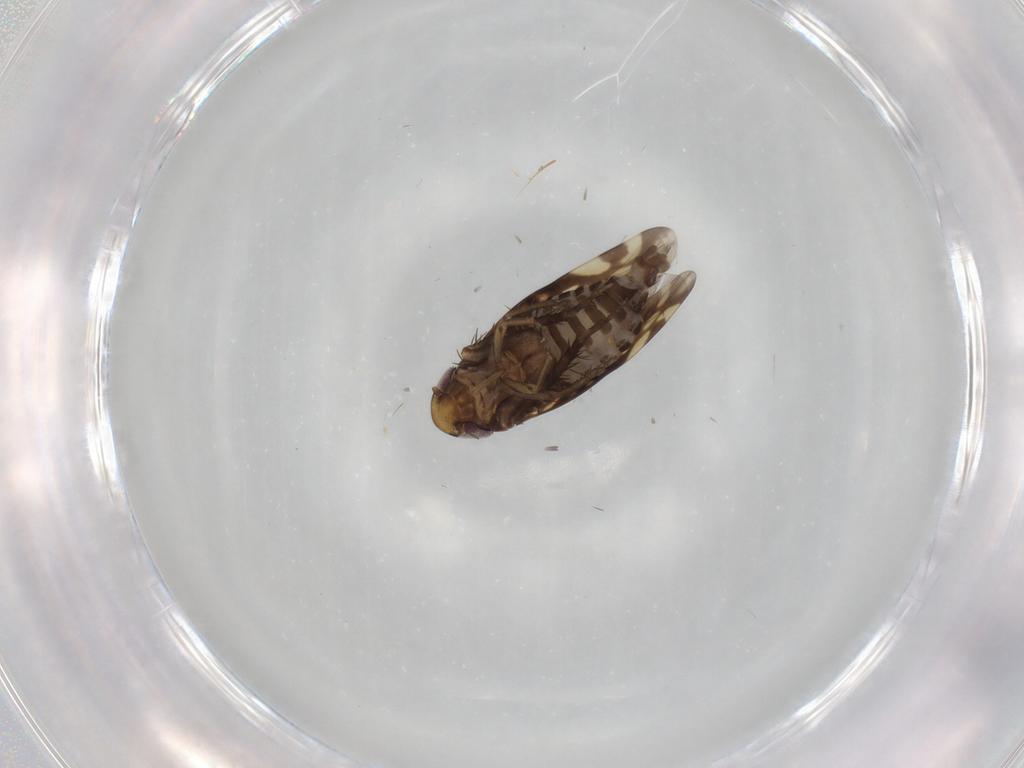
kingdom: Animalia
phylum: Arthropoda
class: Insecta
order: Hemiptera
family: Cicadellidae
